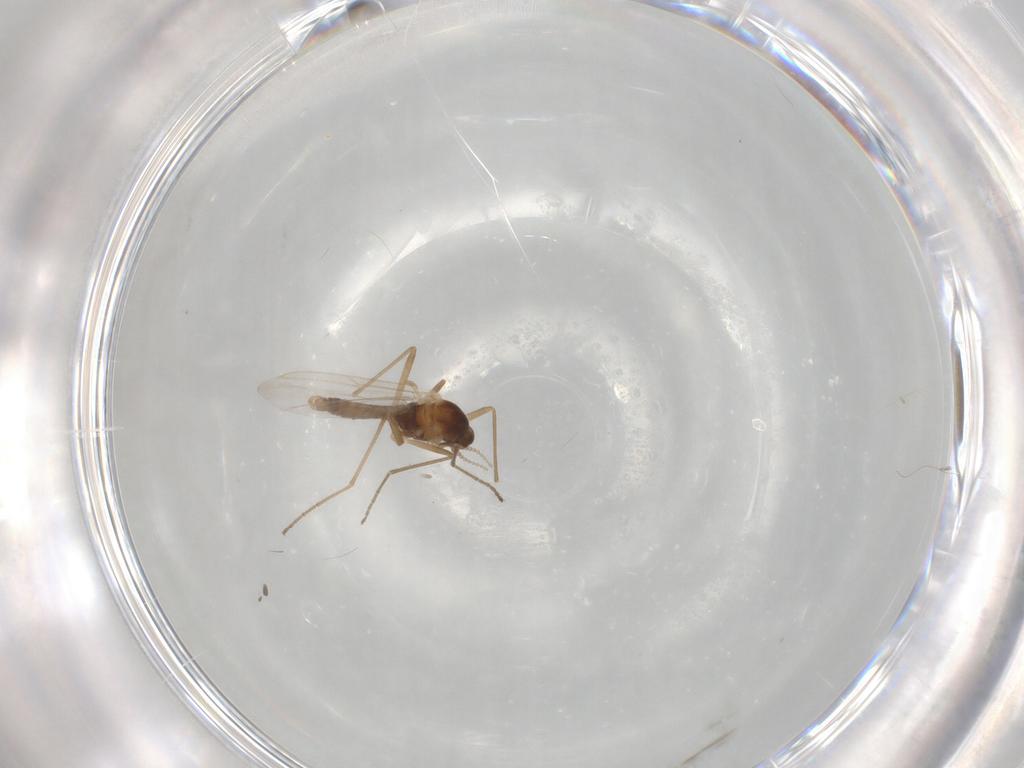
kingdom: Animalia
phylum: Arthropoda
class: Insecta
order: Diptera
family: Cecidomyiidae
